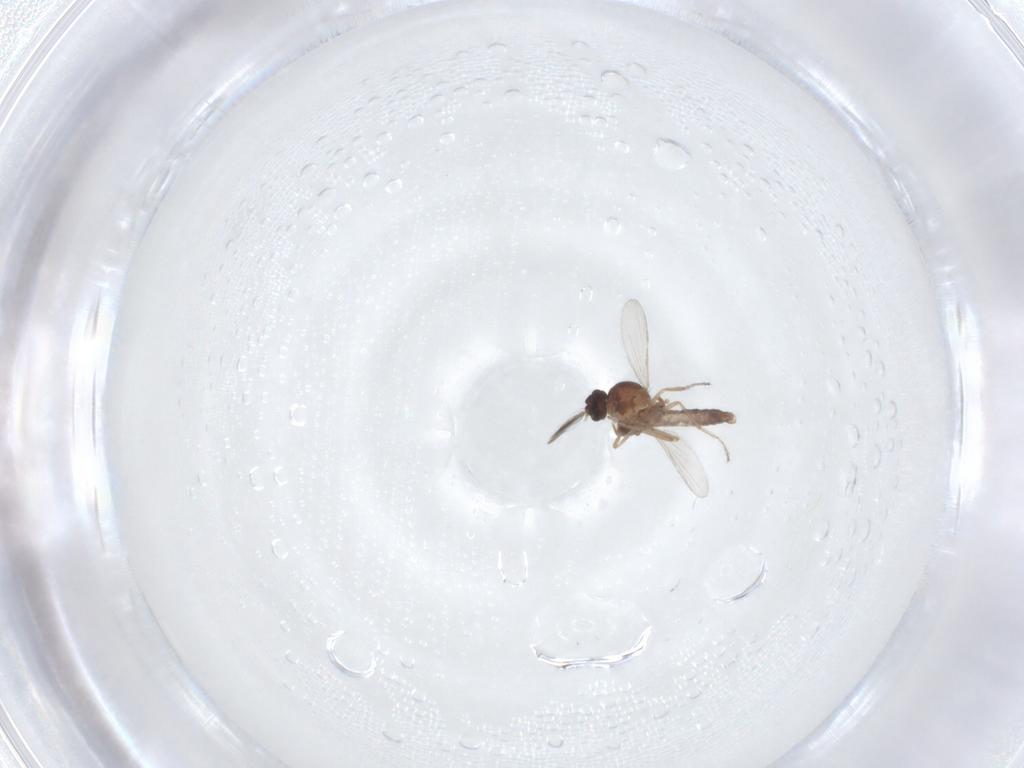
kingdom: Animalia
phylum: Arthropoda
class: Insecta
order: Diptera
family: Ceratopogonidae
